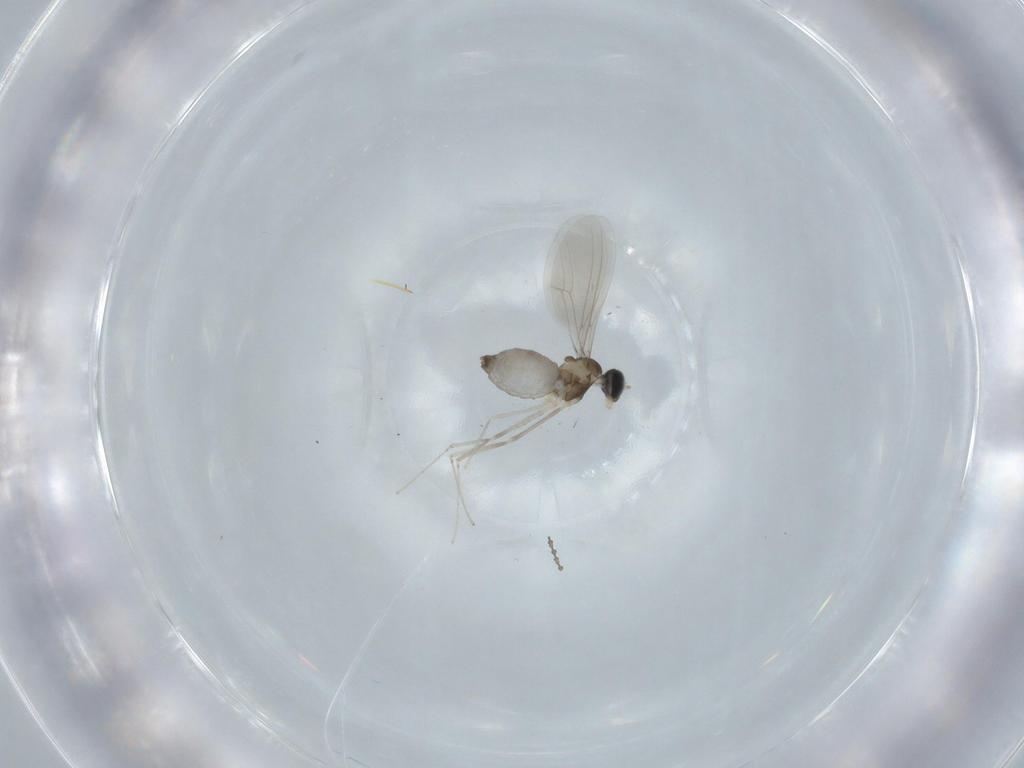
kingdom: Animalia
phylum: Arthropoda
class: Insecta
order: Diptera
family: Cecidomyiidae
